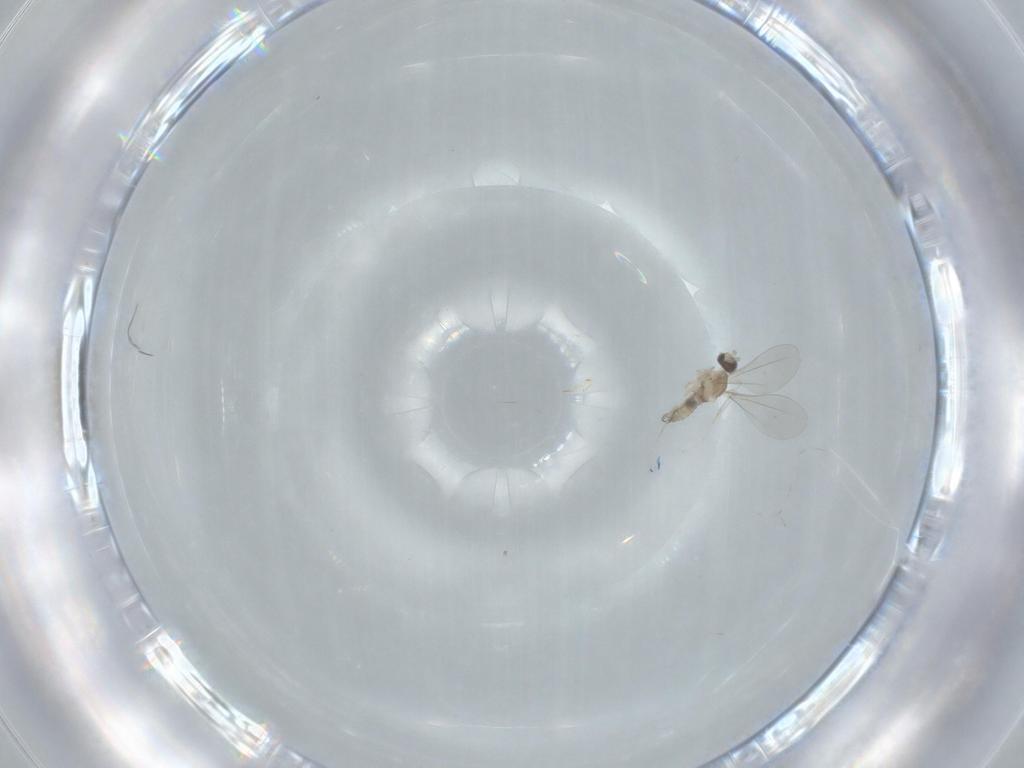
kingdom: Animalia
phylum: Arthropoda
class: Insecta
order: Diptera
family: Cecidomyiidae
